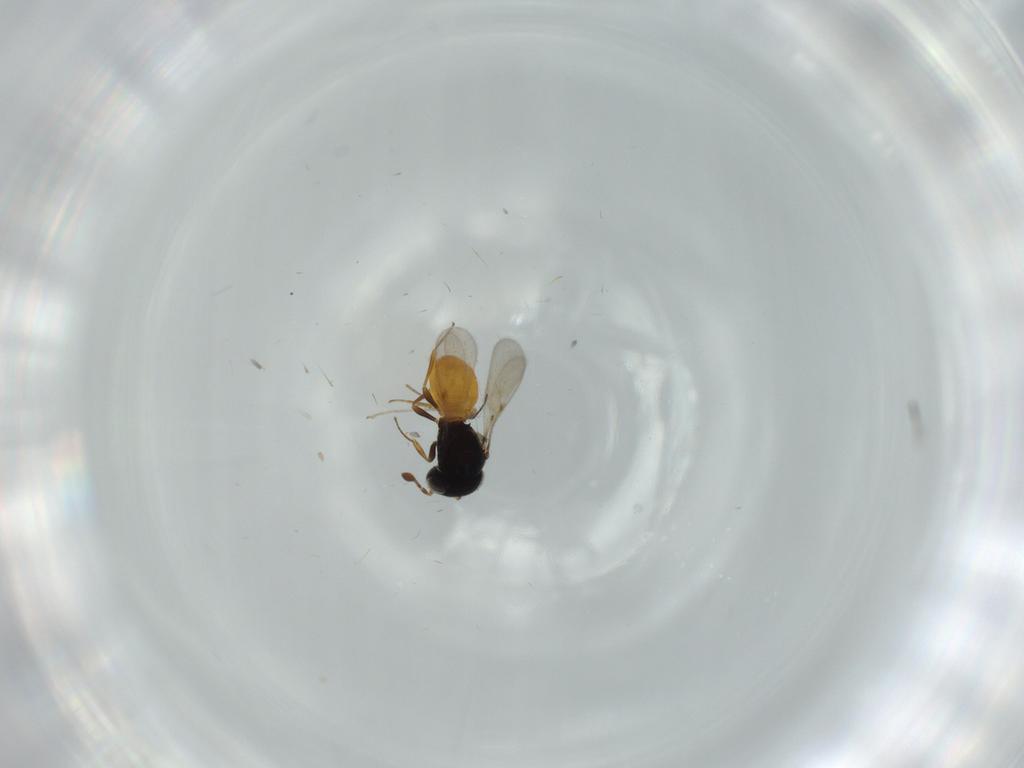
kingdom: Animalia
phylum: Arthropoda
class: Insecta
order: Hymenoptera
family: Scelionidae
